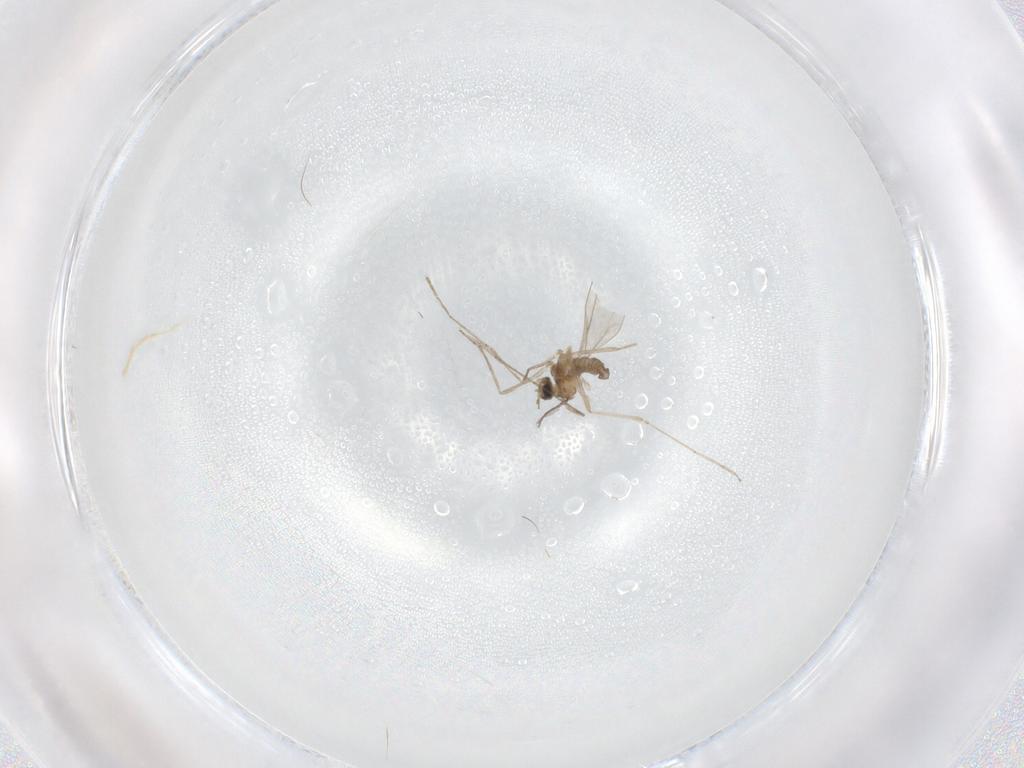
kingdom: Animalia
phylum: Arthropoda
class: Insecta
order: Diptera
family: Cecidomyiidae
